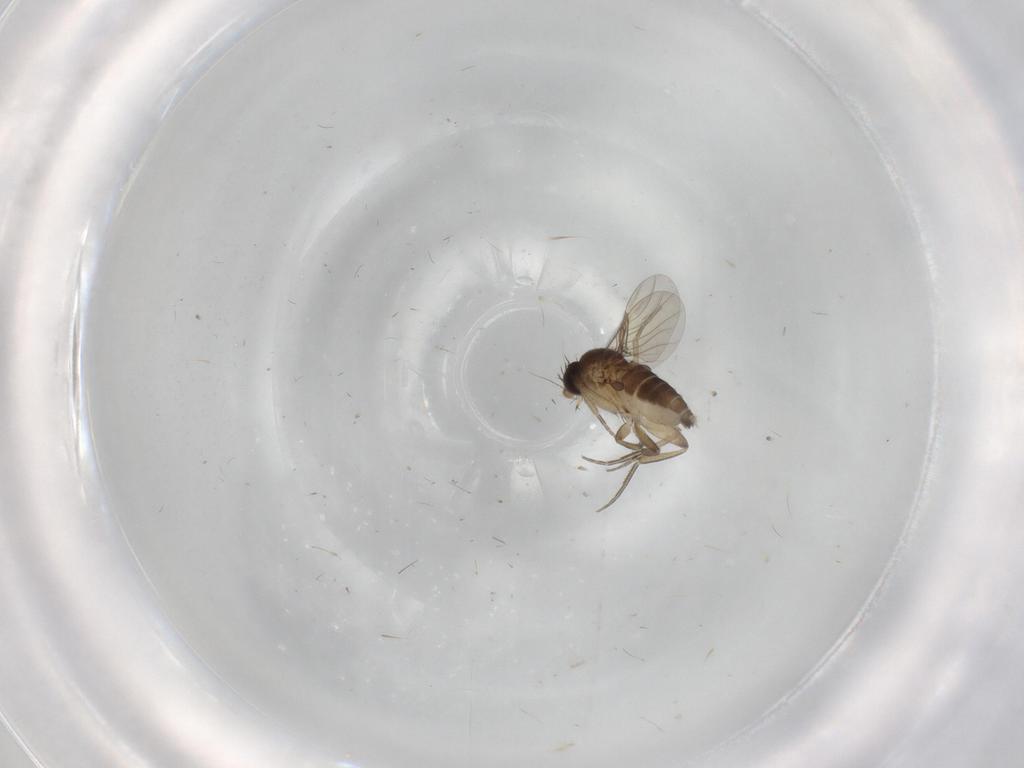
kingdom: Animalia
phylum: Arthropoda
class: Insecta
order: Diptera
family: Phoridae
